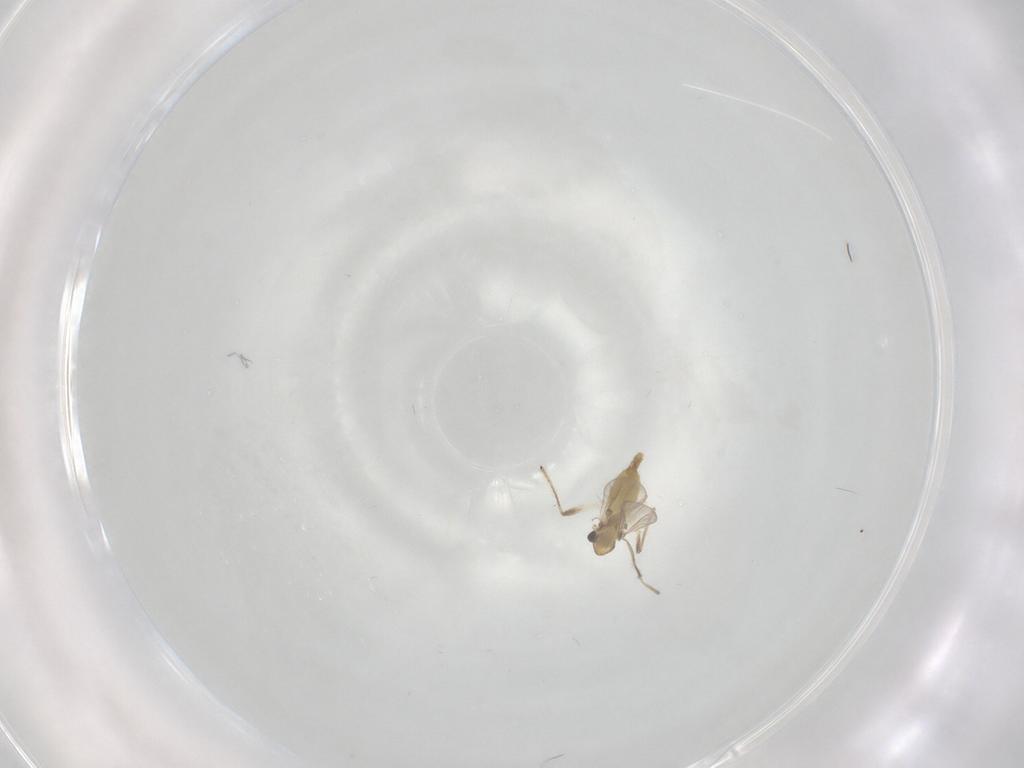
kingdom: Animalia
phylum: Arthropoda
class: Insecta
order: Diptera
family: Chironomidae
